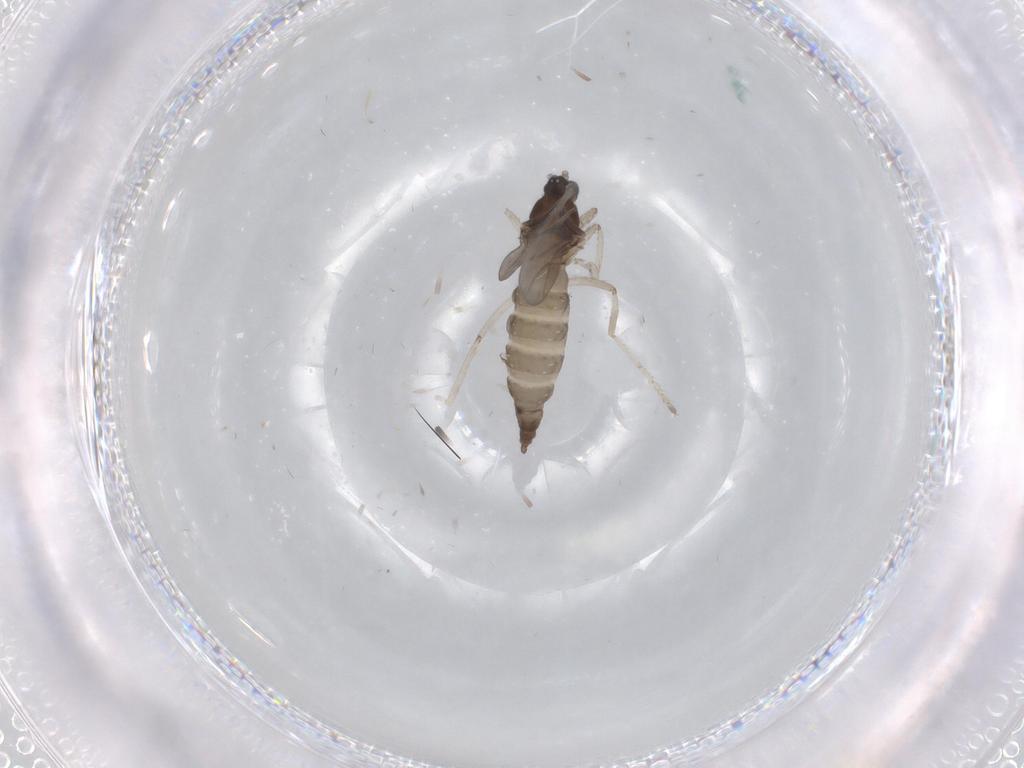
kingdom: Animalia
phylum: Arthropoda
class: Insecta
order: Diptera
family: Cecidomyiidae
